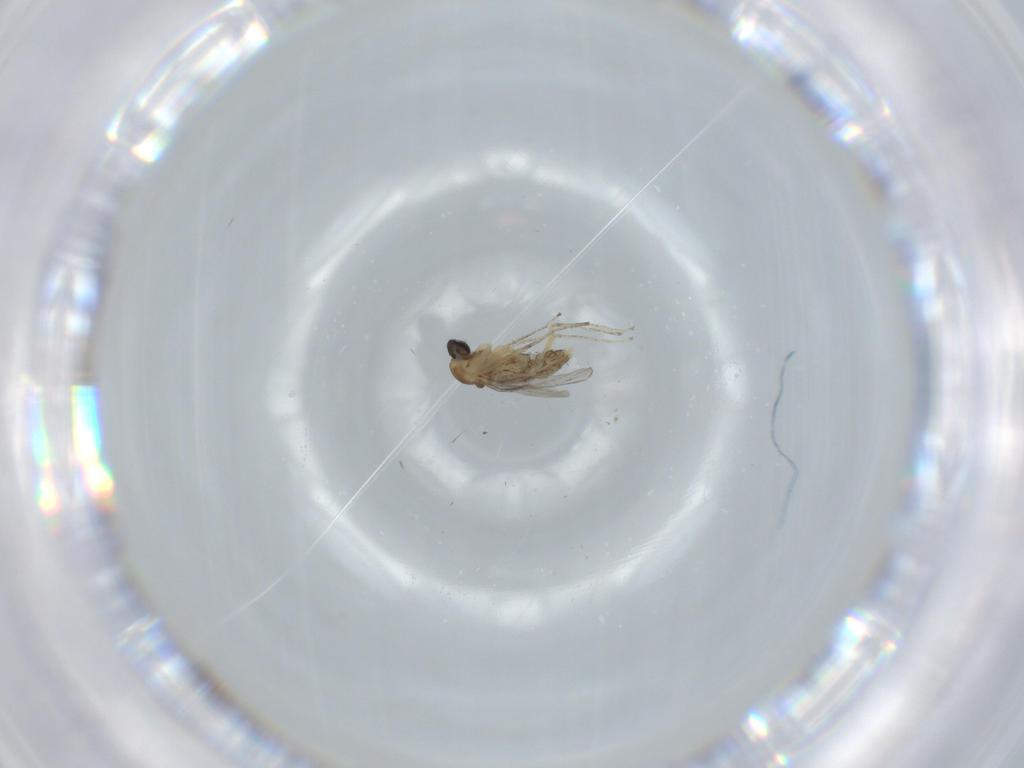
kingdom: Animalia
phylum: Arthropoda
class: Insecta
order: Diptera
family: Cecidomyiidae
